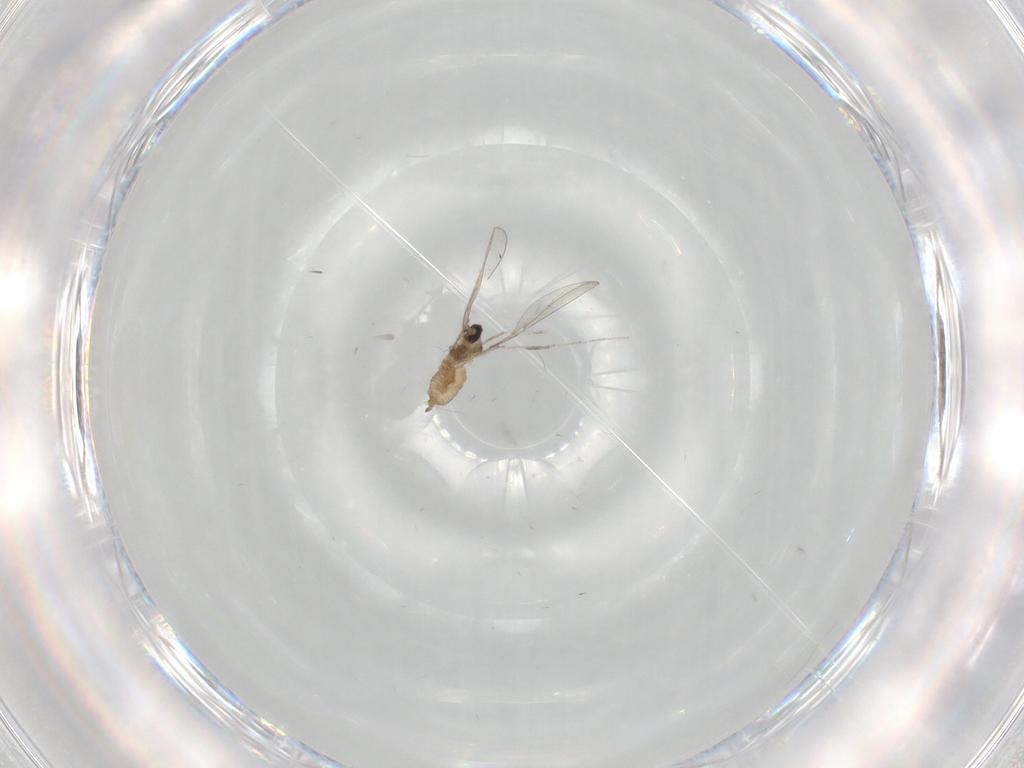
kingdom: Animalia
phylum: Arthropoda
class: Insecta
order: Diptera
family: Cecidomyiidae
